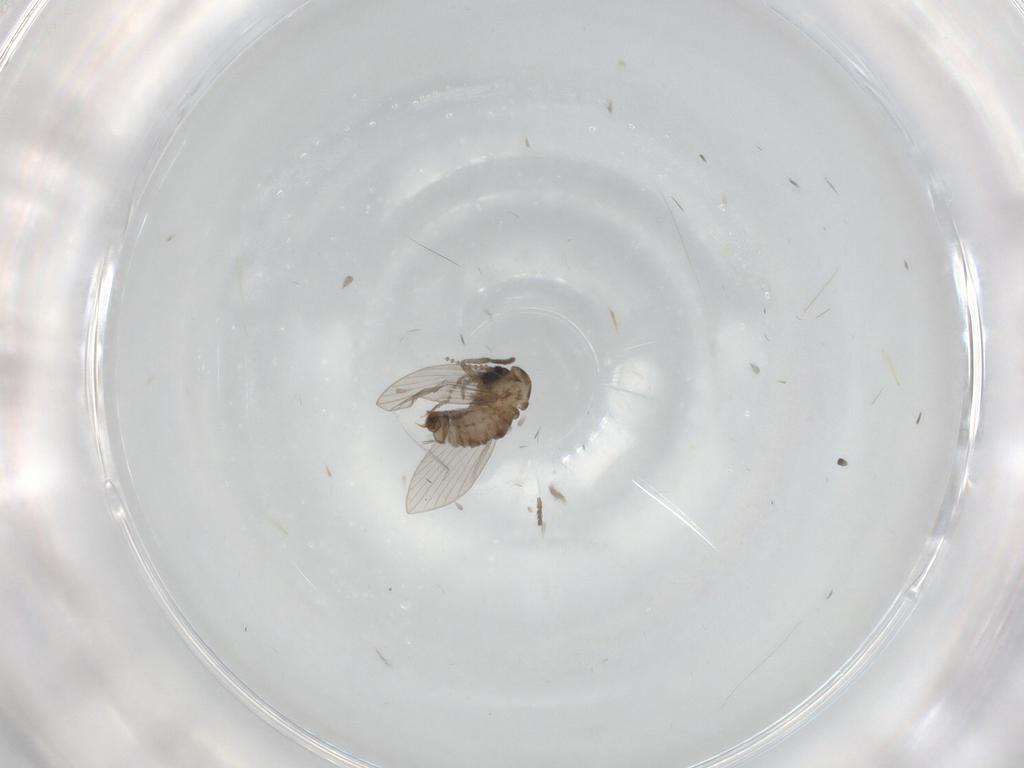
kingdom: Animalia
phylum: Arthropoda
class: Insecta
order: Diptera
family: Psychodidae
